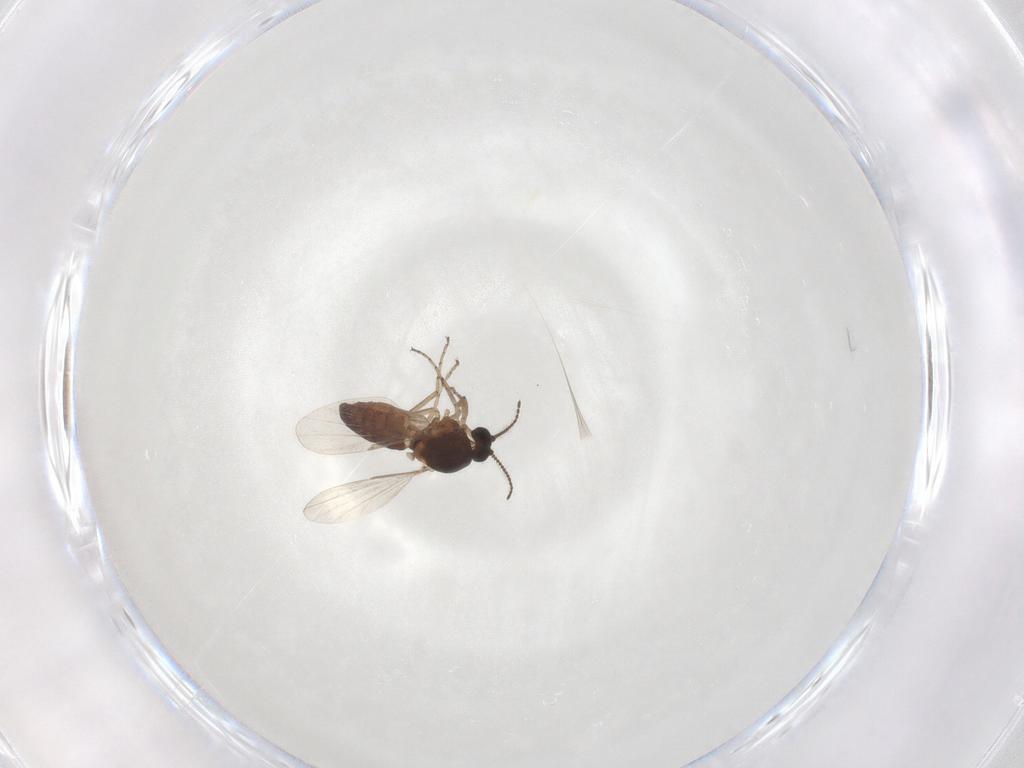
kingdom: Animalia
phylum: Arthropoda
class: Insecta
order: Diptera
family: Ceratopogonidae
